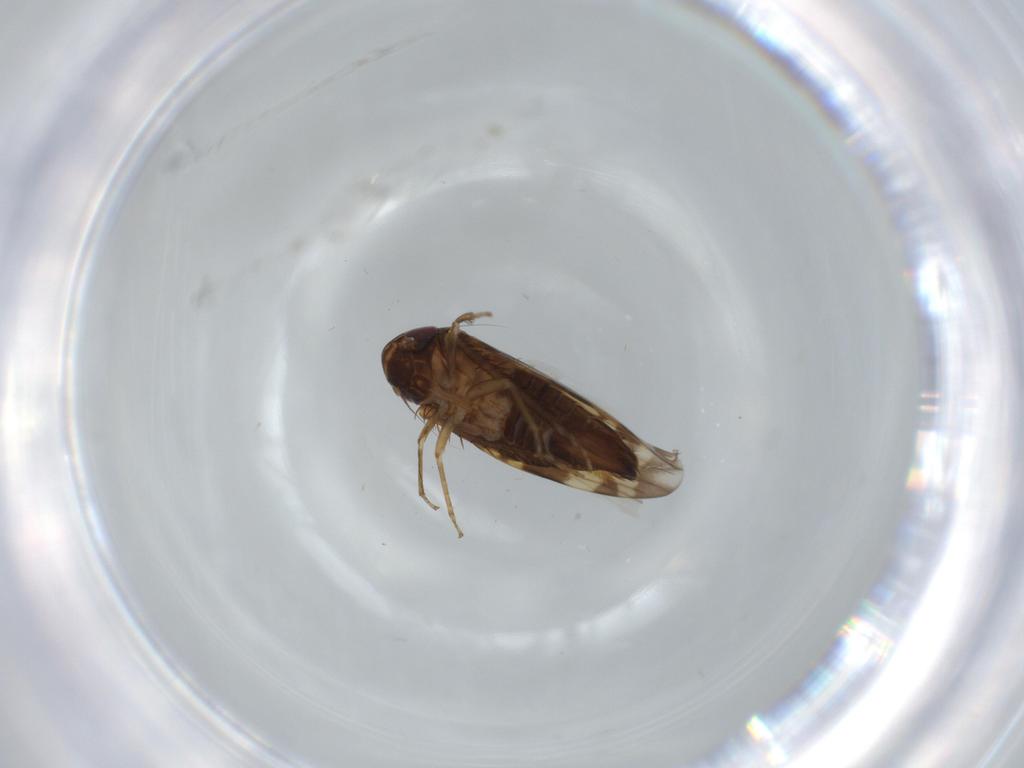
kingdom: Animalia
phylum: Arthropoda
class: Insecta
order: Hemiptera
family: Cicadellidae
